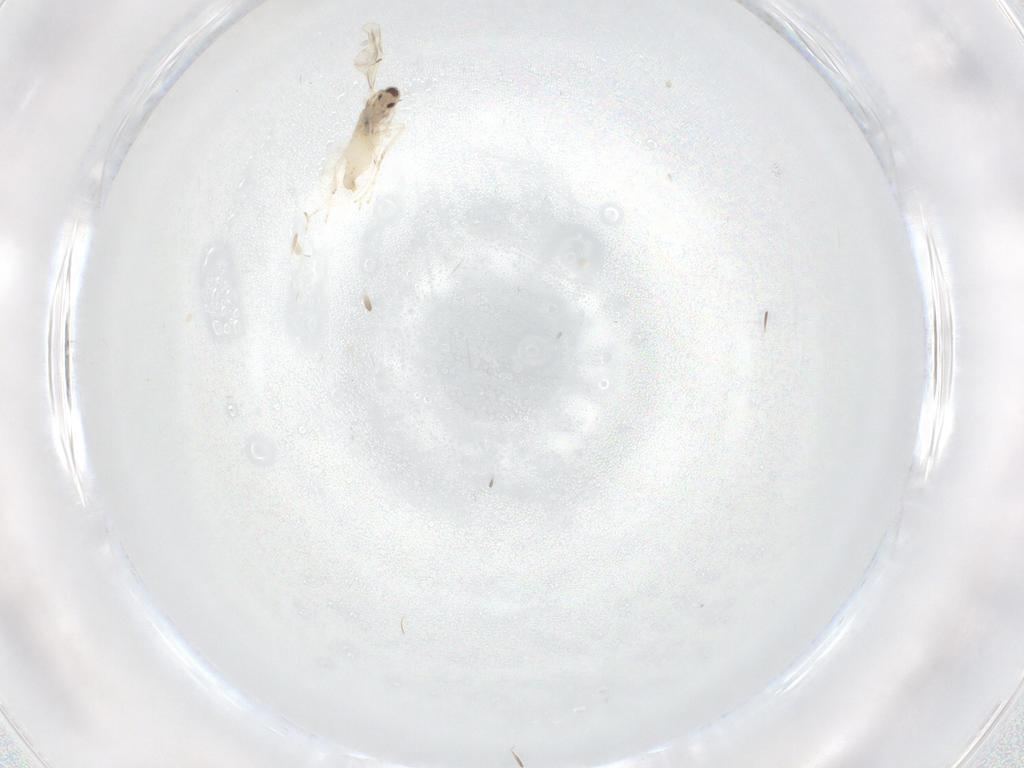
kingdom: Animalia
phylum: Arthropoda
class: Insecta
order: Diptera
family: Cecidomyiidae
